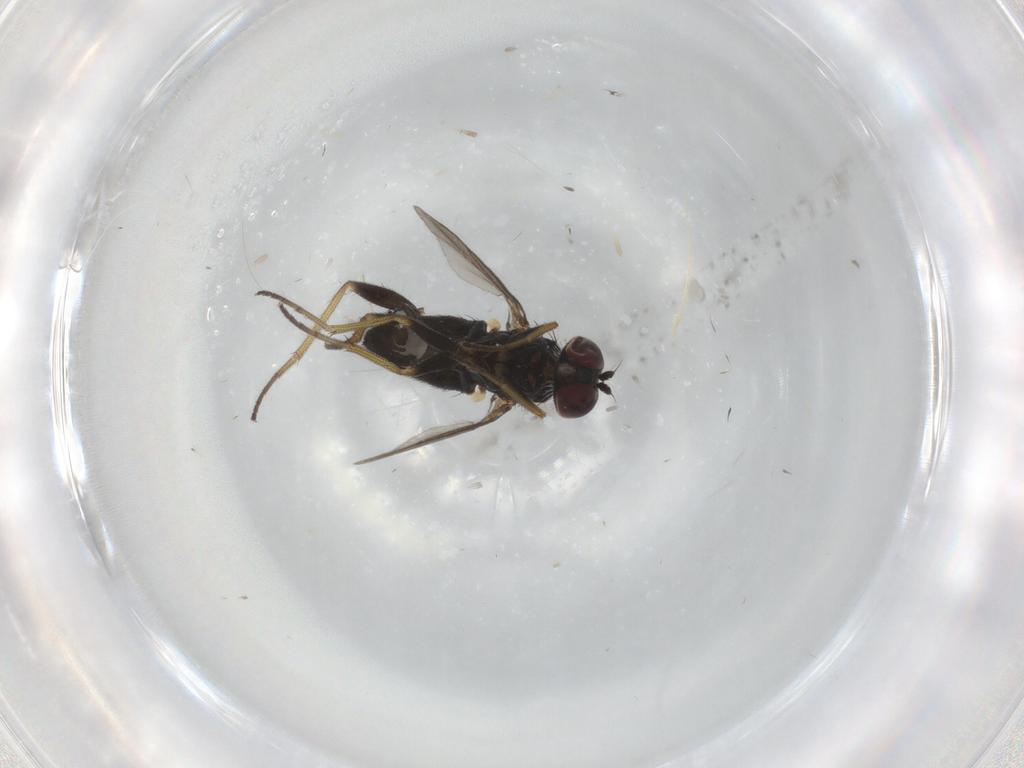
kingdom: Animalia
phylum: Arthropoda
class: Insecta
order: Diptera
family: Dolichopodidae
